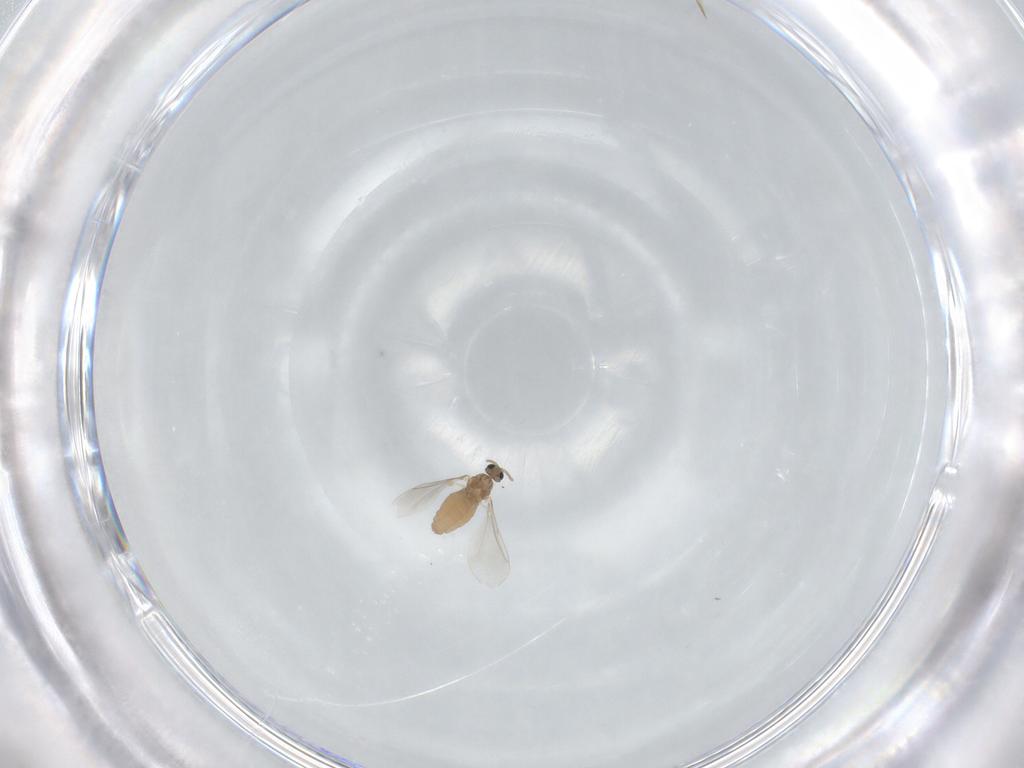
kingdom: Animalia
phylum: Arthropoda
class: Insecta
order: Diptera
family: Cecidomyiidae
